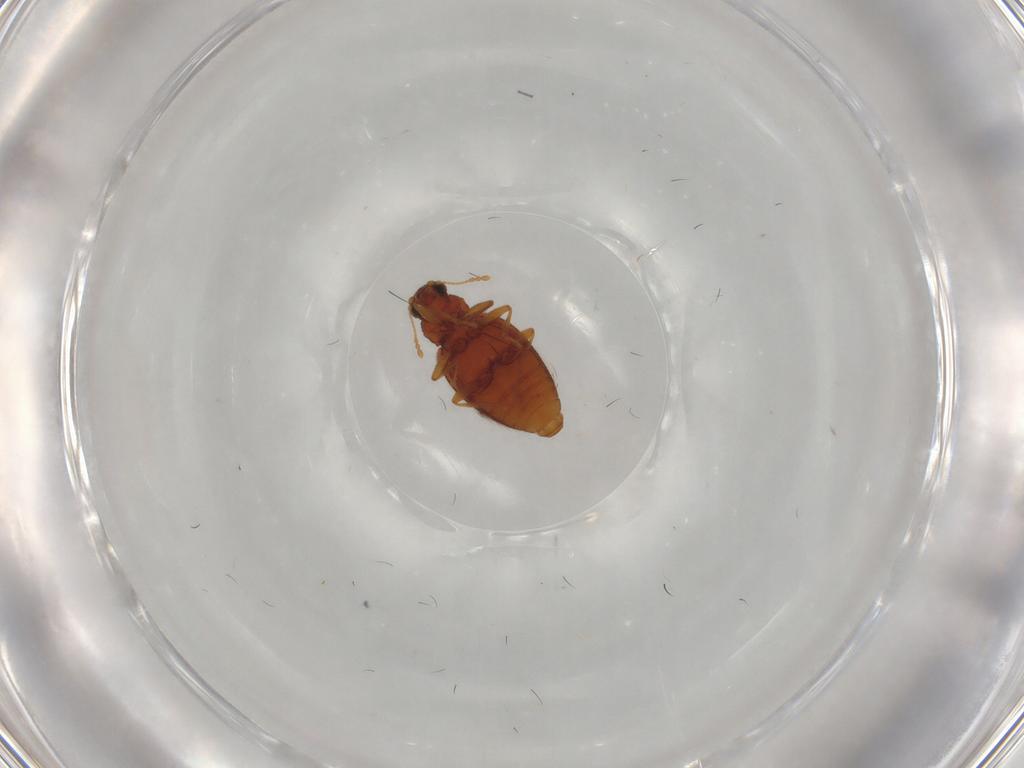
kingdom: Animalia
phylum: Arthropoda
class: Insecta
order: Coleoptera
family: Latridiidae
